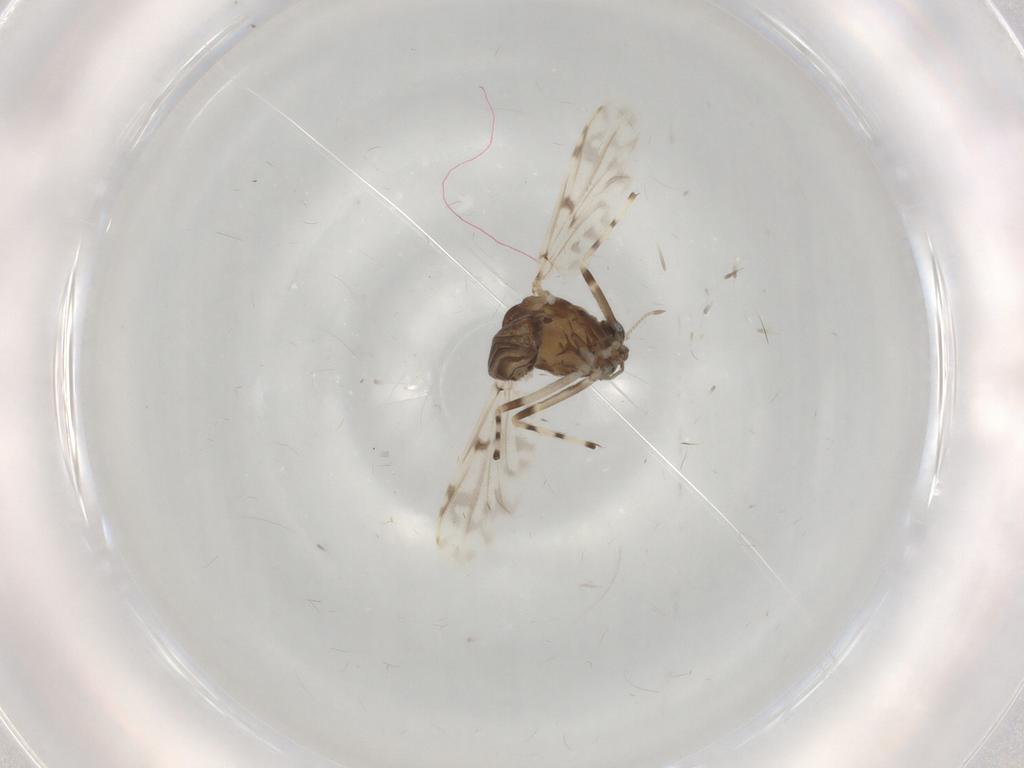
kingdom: Animalia
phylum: Arthropoda
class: Insecta
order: Diptera
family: Chironomidae
